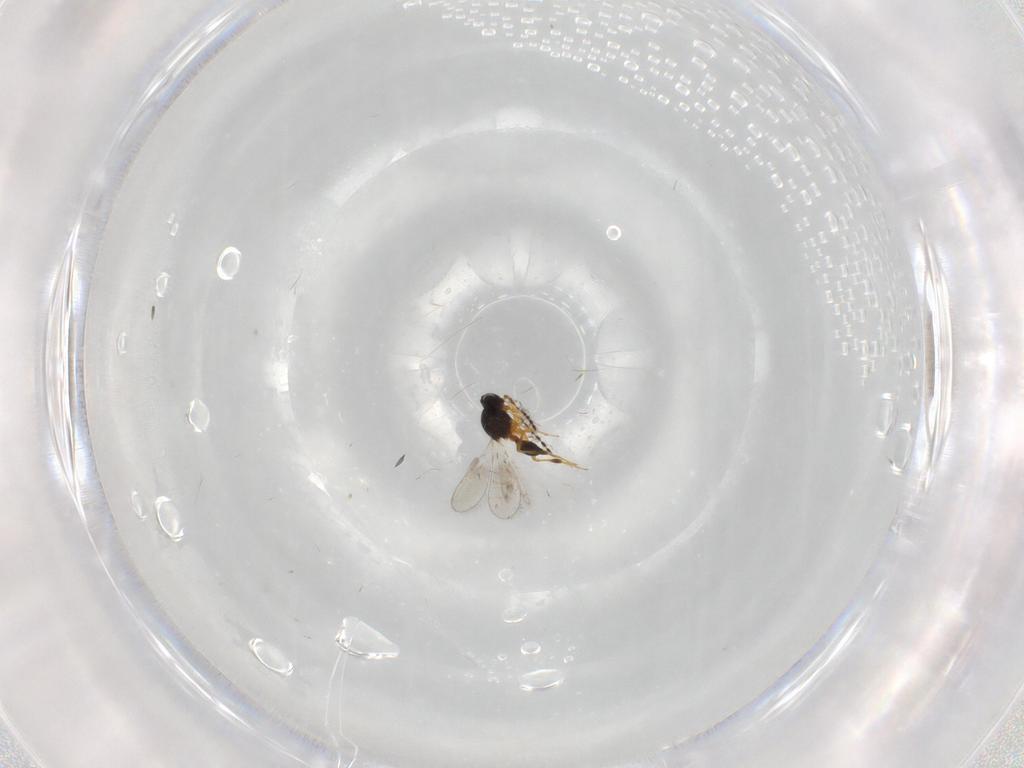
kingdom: Animalia
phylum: Arthropoda
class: Insecta
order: Hymenoptera
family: Platygastridae
